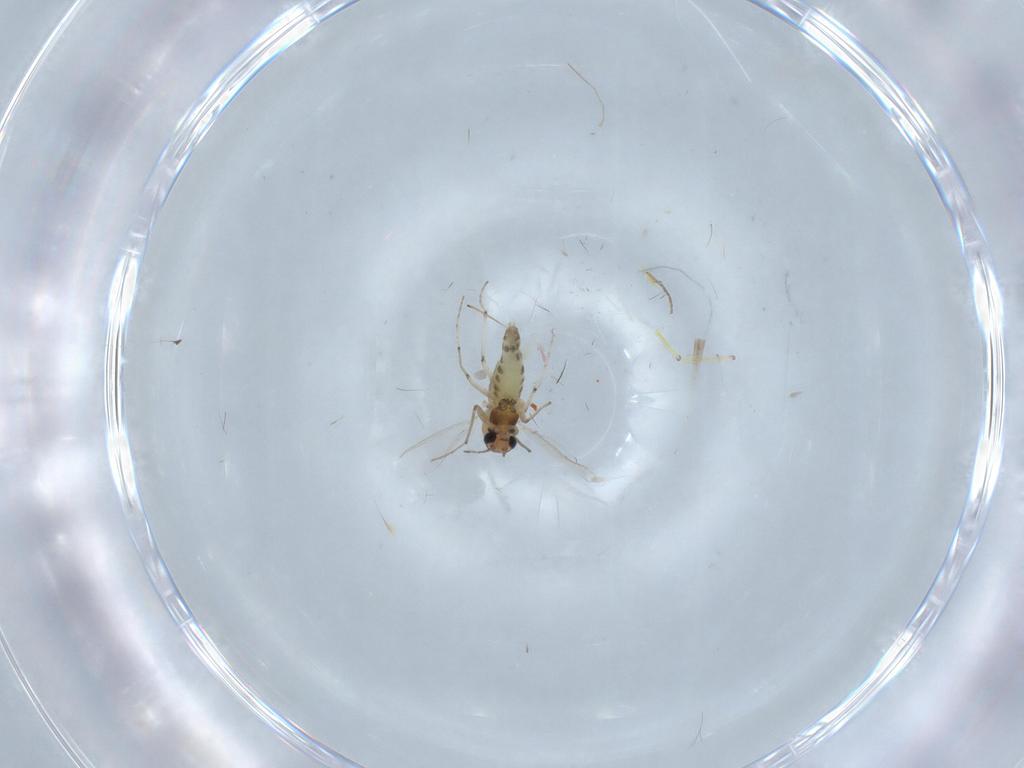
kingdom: Animalia
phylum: Arthropoda
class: Insecta
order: Diptera
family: Chironomidae
